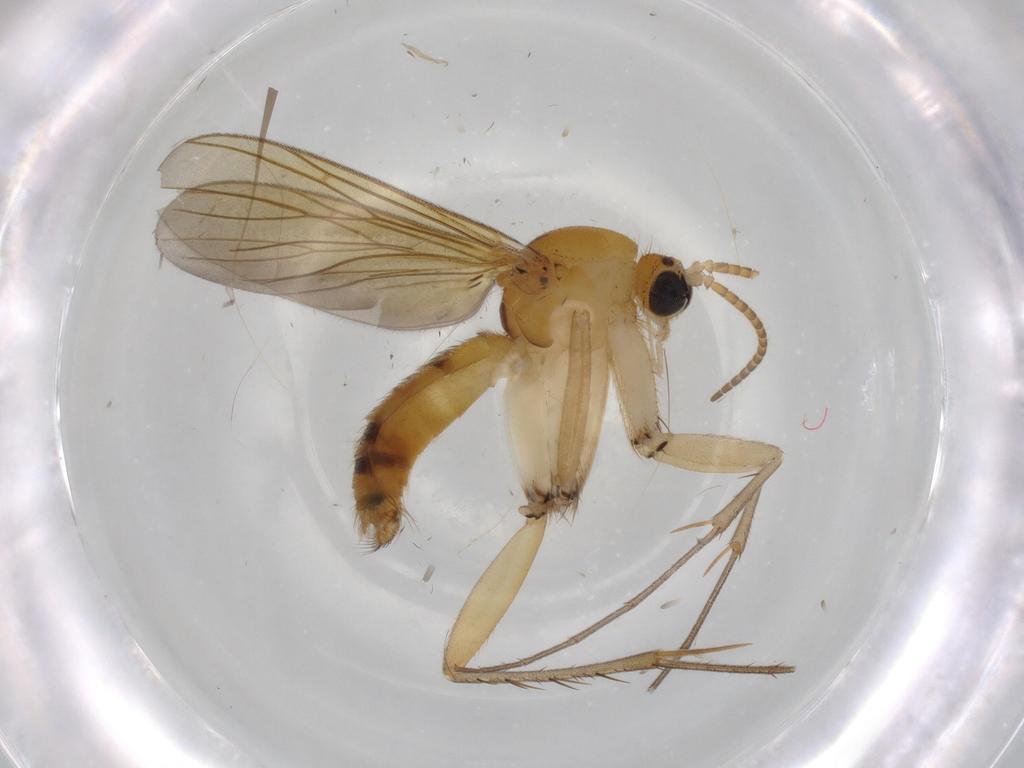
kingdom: Animalia
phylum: Arthropoda
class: Insecta
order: Diptera
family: Mycetophilidae
